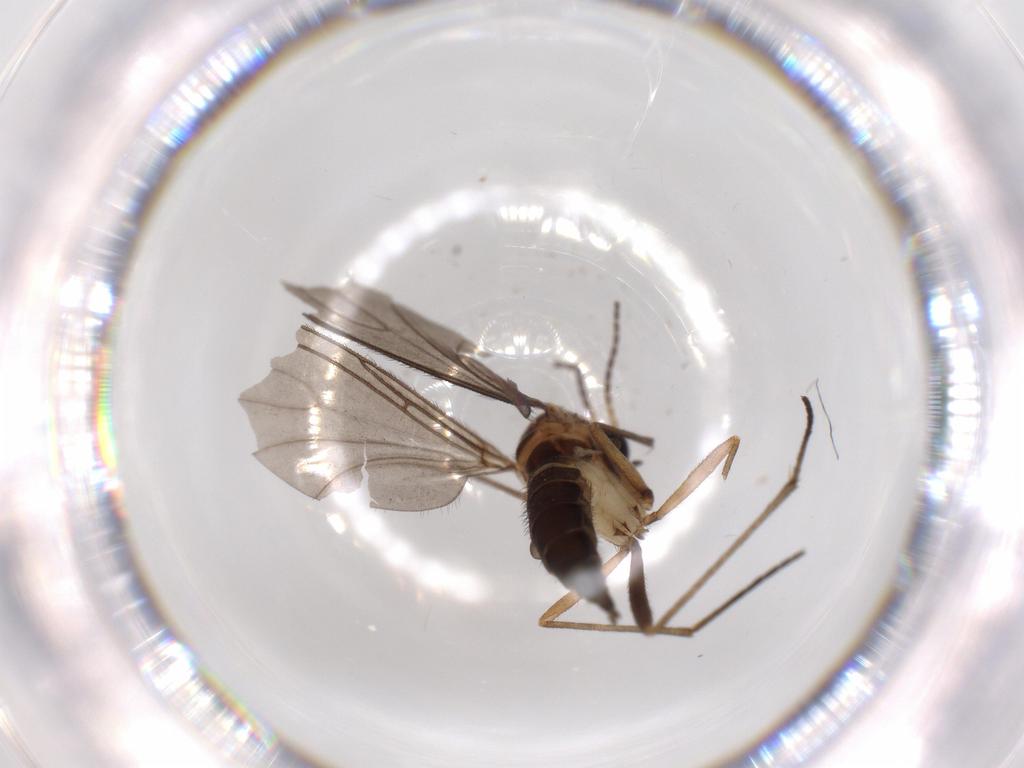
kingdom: Animalia
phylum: Arthropoda
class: Insecta
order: Diptera
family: Sciaridae
